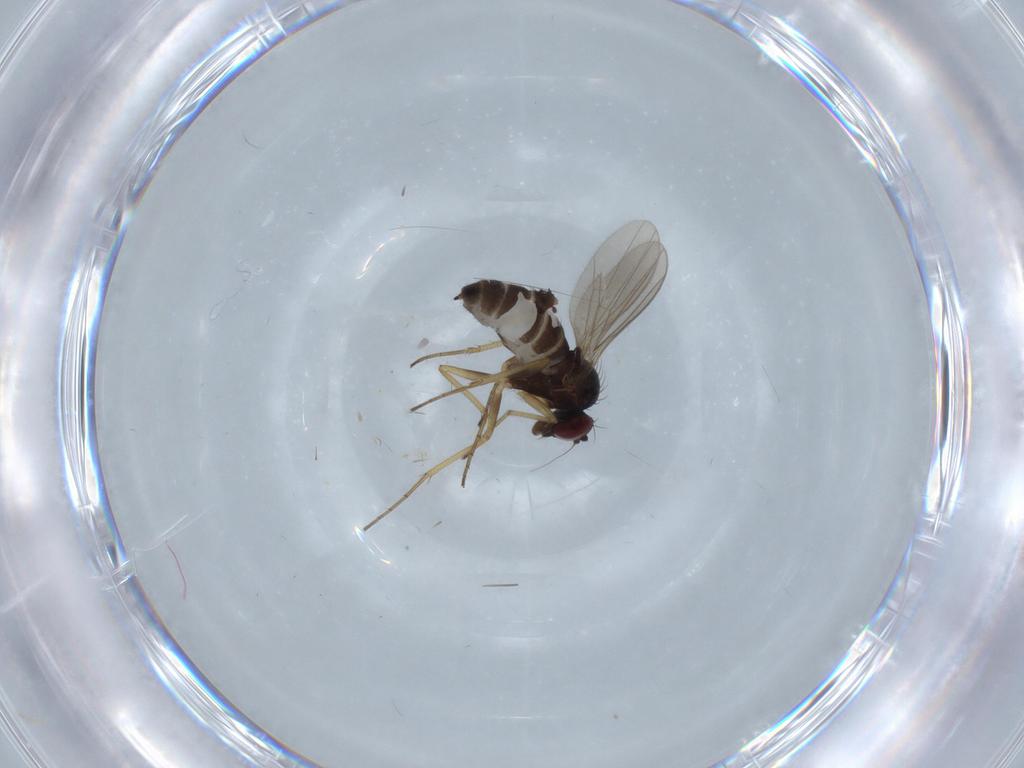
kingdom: Animalia
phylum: Arthropoda
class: Insecta
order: Diptera
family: Dolichopodidae
